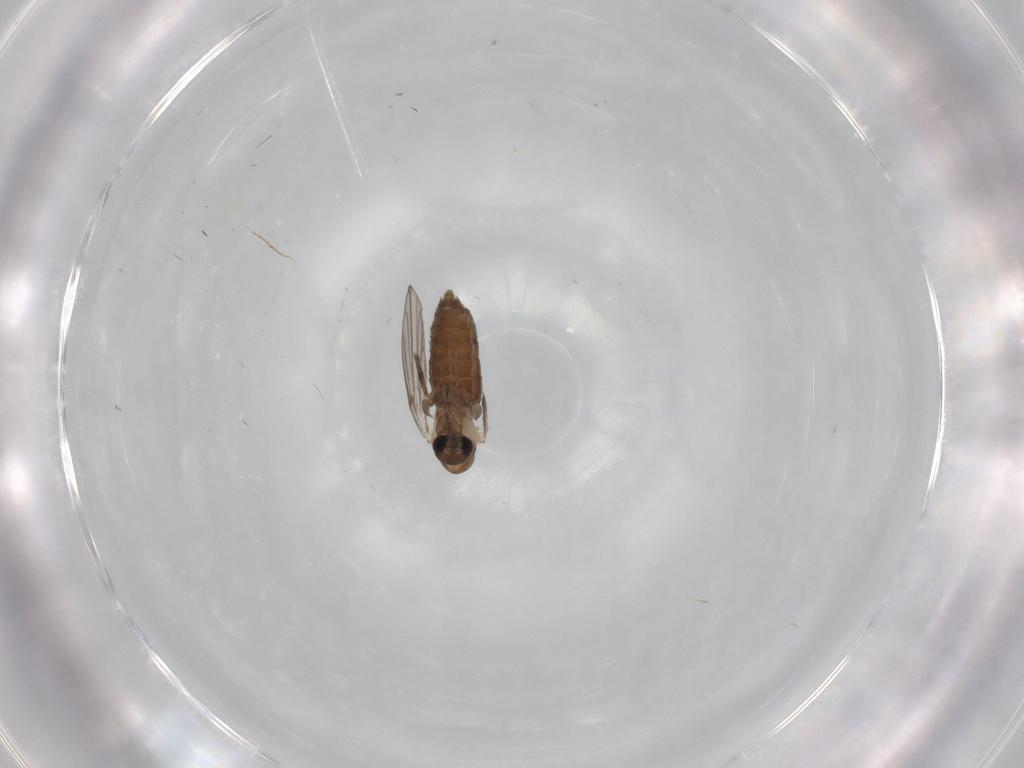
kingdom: Animalia
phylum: Arthropoda
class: Insecta
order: Diptera
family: Psychodidae
